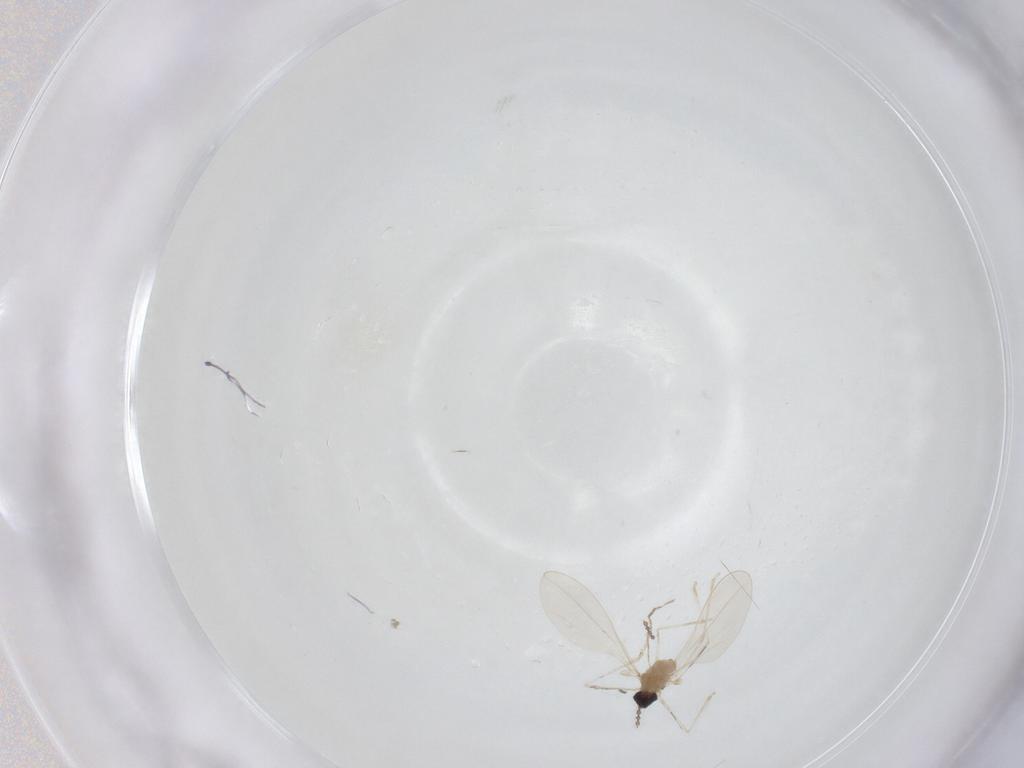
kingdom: Animalia
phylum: Arthropoda
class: Insecta
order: Diptera
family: Cecidomyiidae
